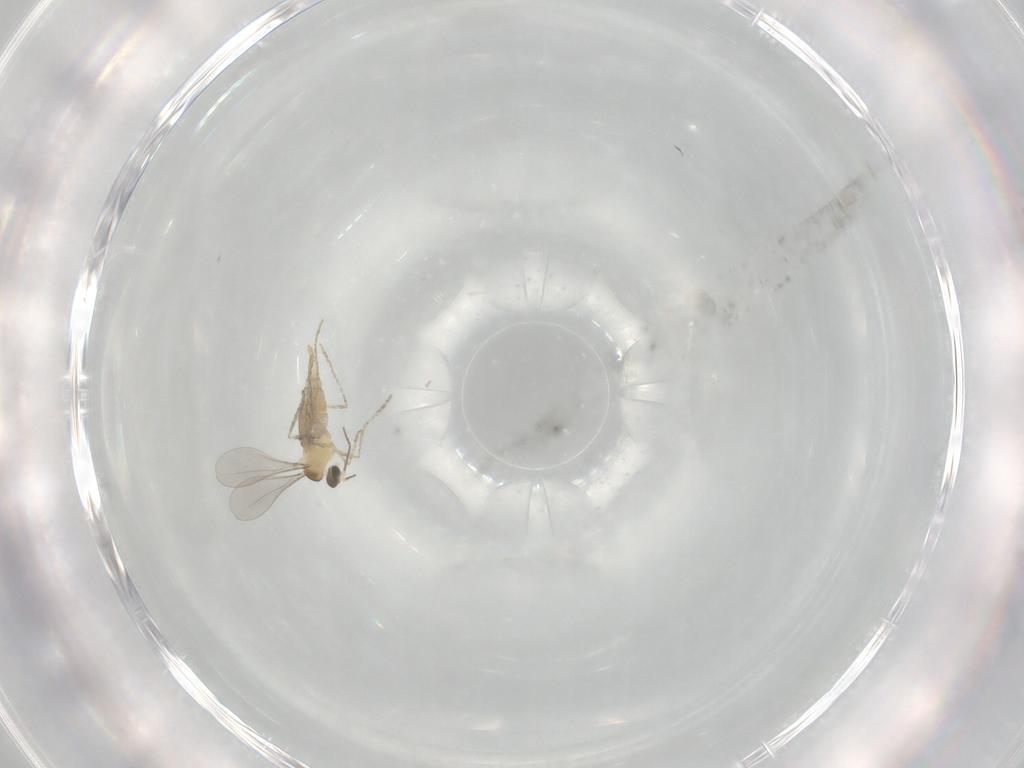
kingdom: Animalia
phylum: Arthropoda
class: Insecta
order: Diptera
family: Cecidomyiidae
